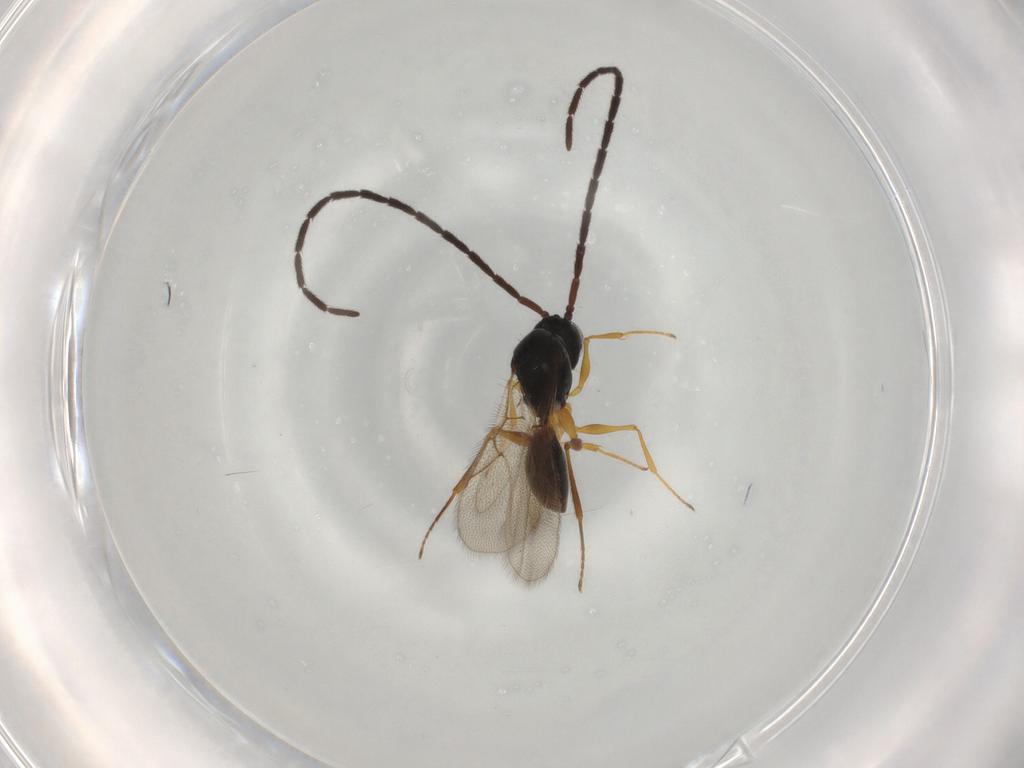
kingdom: Animalia
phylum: Arthropoda
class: Insecta
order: Hymenoptera
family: Figitidae
